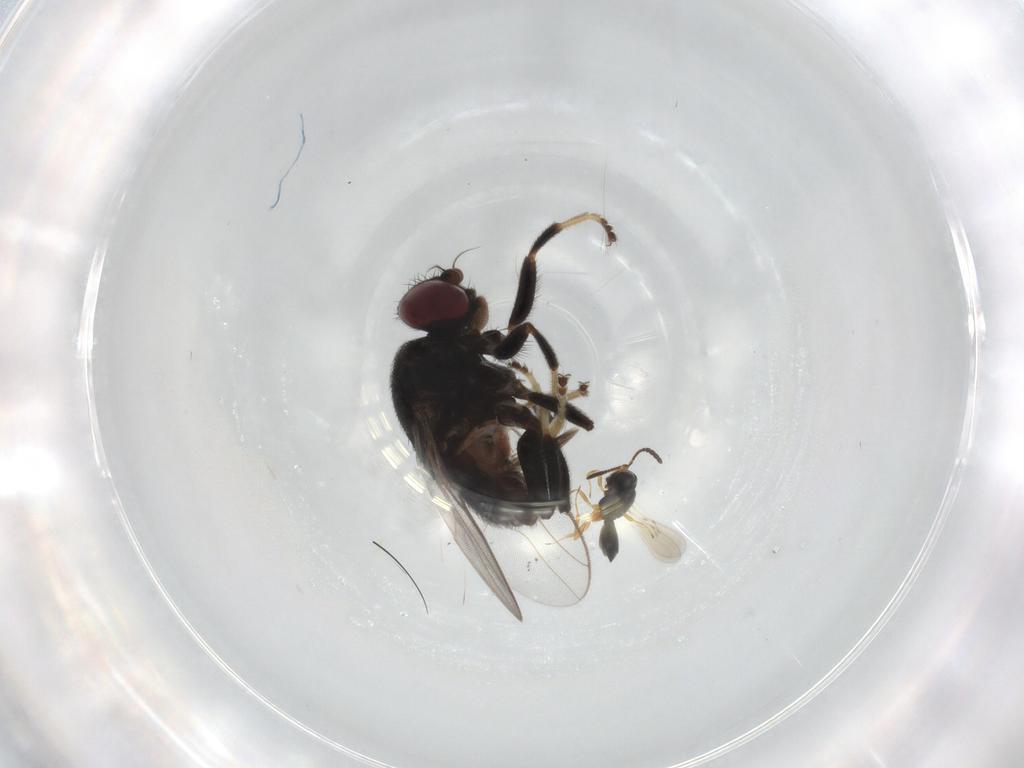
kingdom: Animalia
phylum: Arthropoda
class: Insecta
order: Diptera
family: Chloropidae
